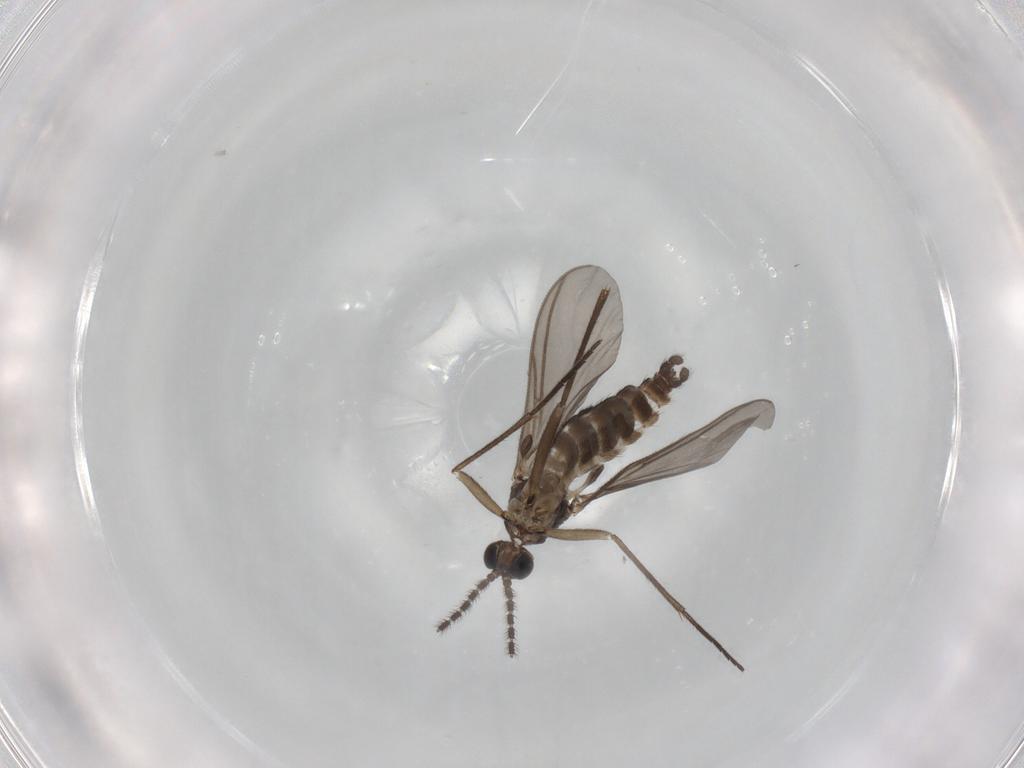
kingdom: Animalia
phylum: Arthropoda
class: Insecta
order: Diptera
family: Sciaridae
